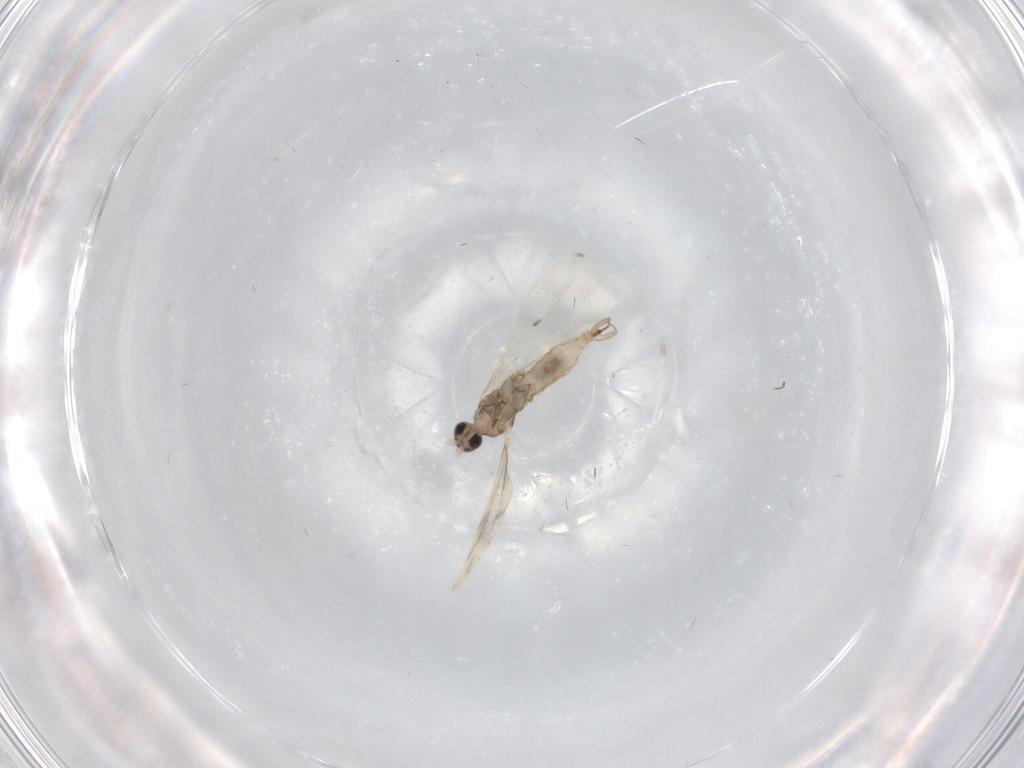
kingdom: Animalia
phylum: Arthropoda
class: Insecta
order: Diptera
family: Cecidomyiidae
